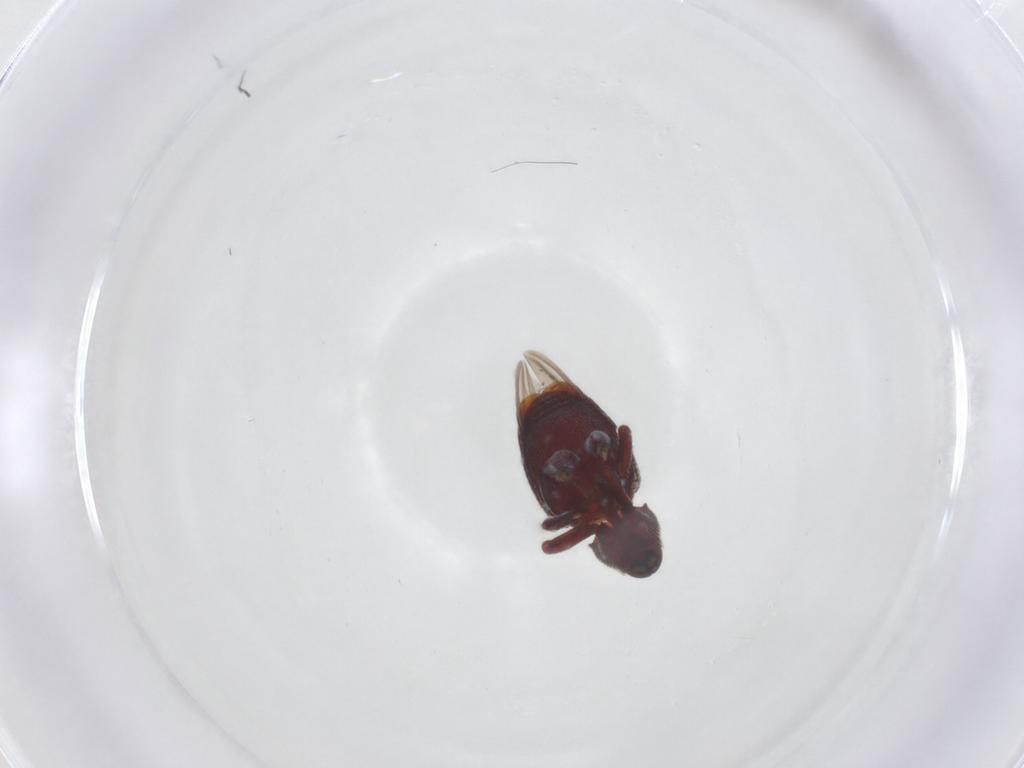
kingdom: Animalia
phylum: Arthropoda
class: Insecta
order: Coleoptera
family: Curculionidae
